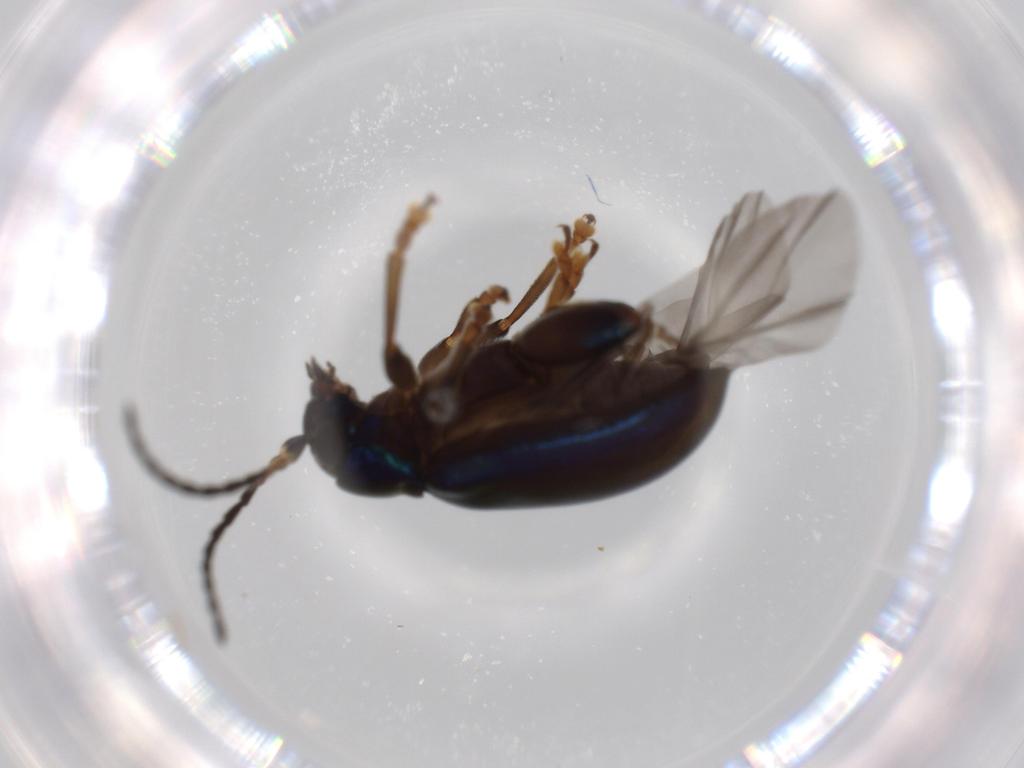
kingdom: Animalia
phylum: Arthropoda
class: Insecta
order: Coleoptera
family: Chrysomelidae
